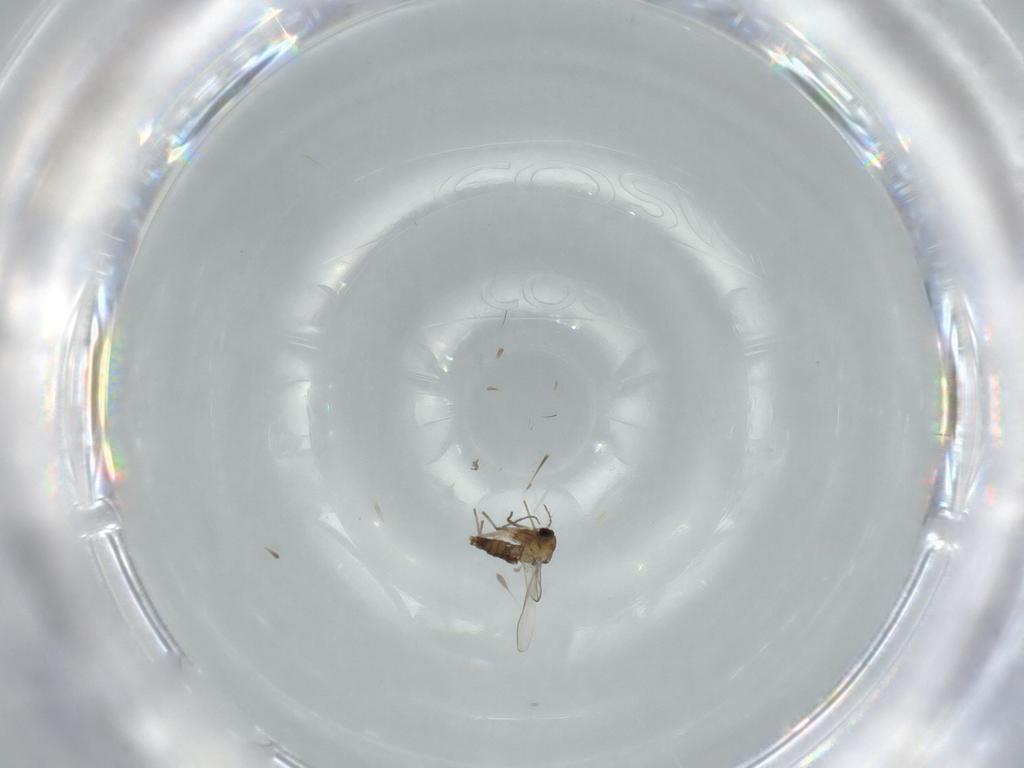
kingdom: Animalia
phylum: Arthropoda
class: Insecta
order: Diptera
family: Chironomidae
